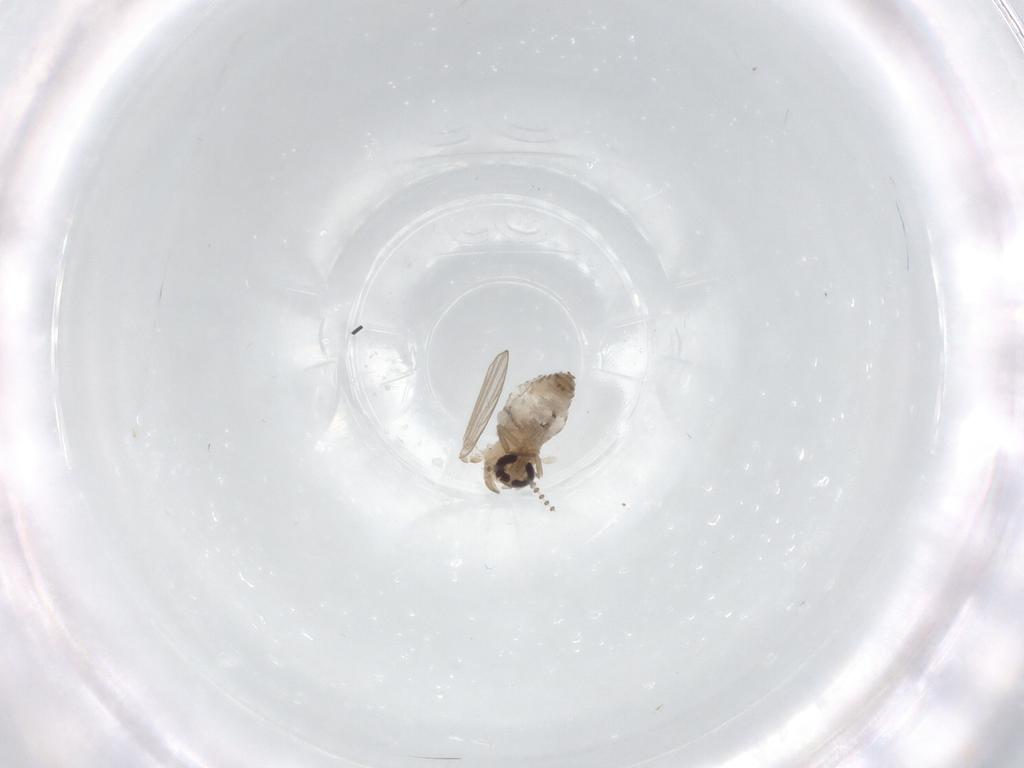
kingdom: Animalia
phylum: Arthropoda
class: Insecta
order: Diptera
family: Psychodidae
